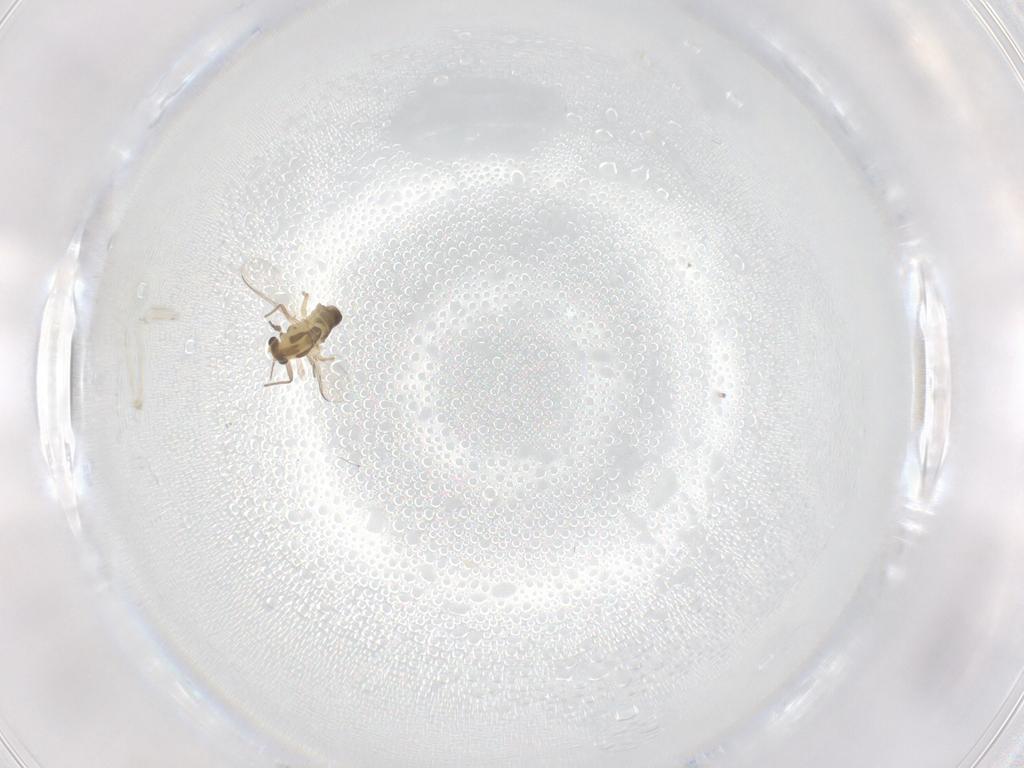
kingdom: Animalia
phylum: Arthropoda
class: Insecta
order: Diptera
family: Chironomidae
